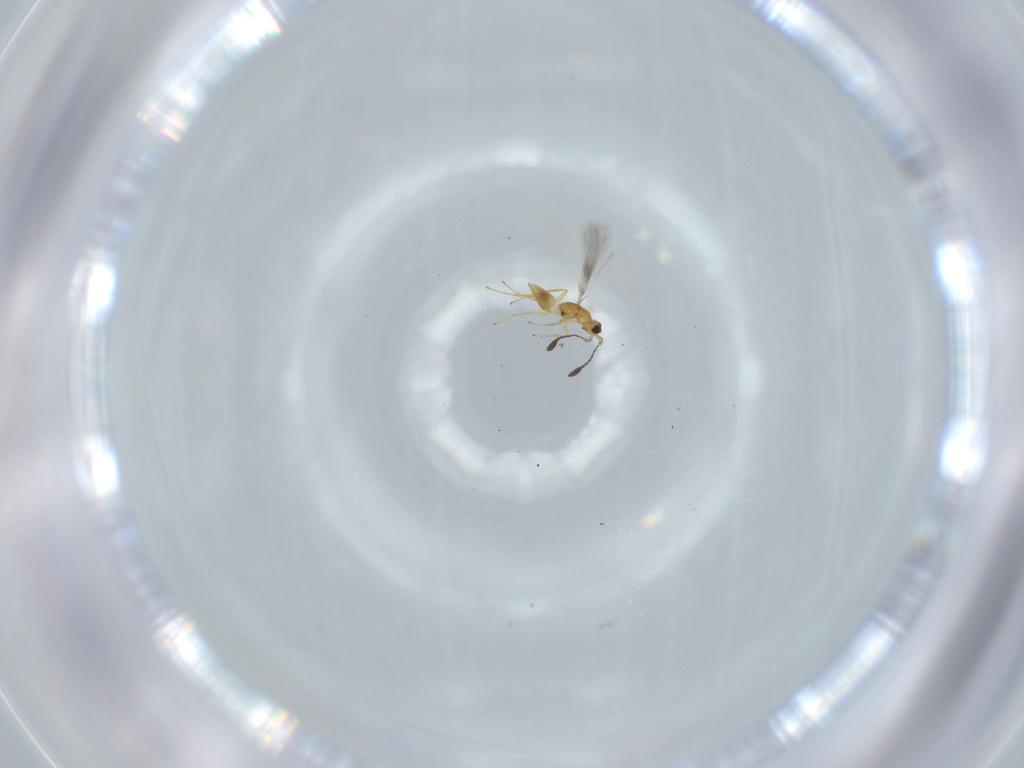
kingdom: Animalia
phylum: Arthropoda
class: Insecta
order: Hymenoptera
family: Mymaridae
